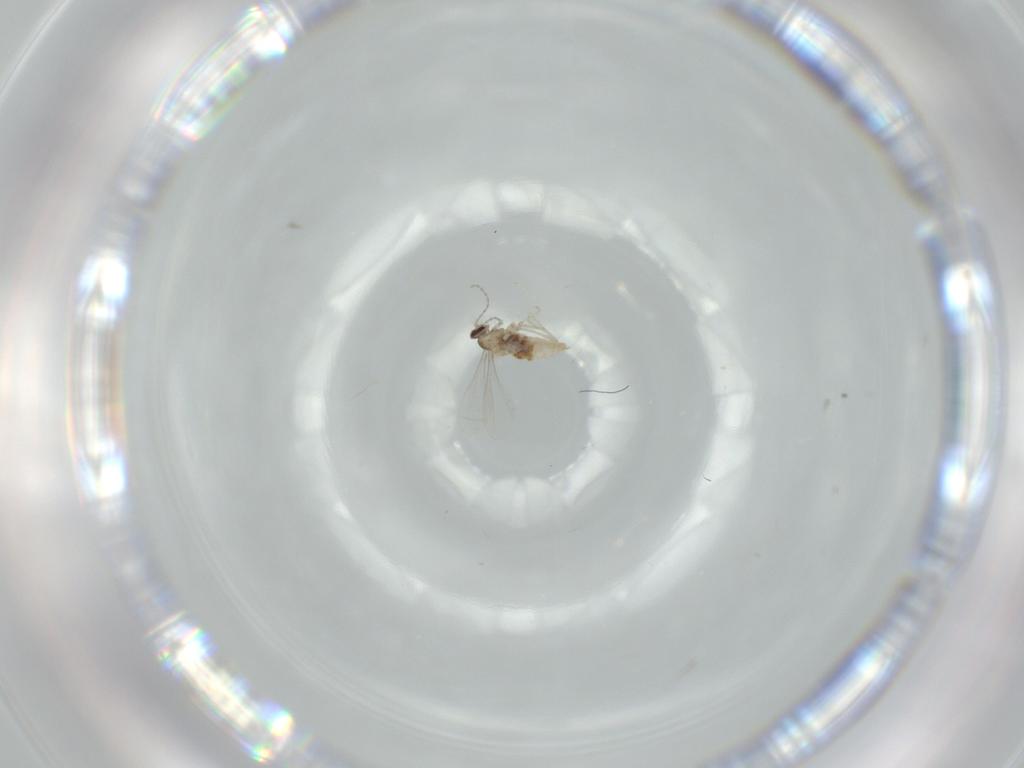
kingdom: Animalia
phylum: Arthropoda
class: Insecta
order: Diptera
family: Cecidomyiidae
